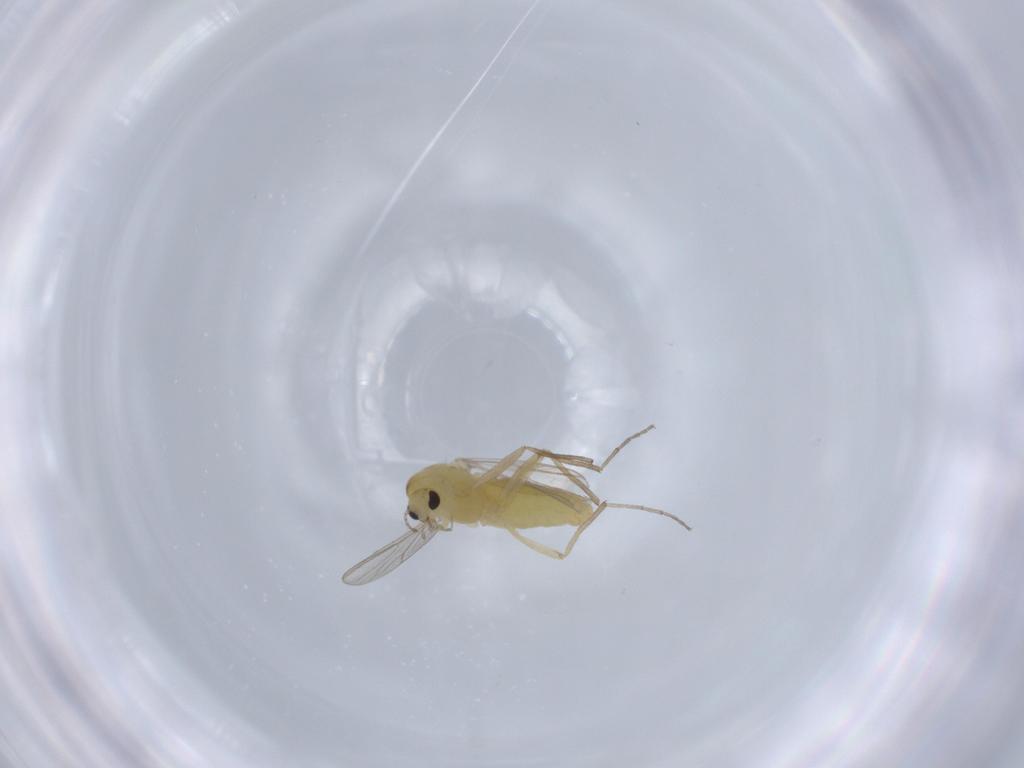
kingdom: Animalia
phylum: Arthropoda
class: Insecta
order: Diptera
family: Chironomidae
